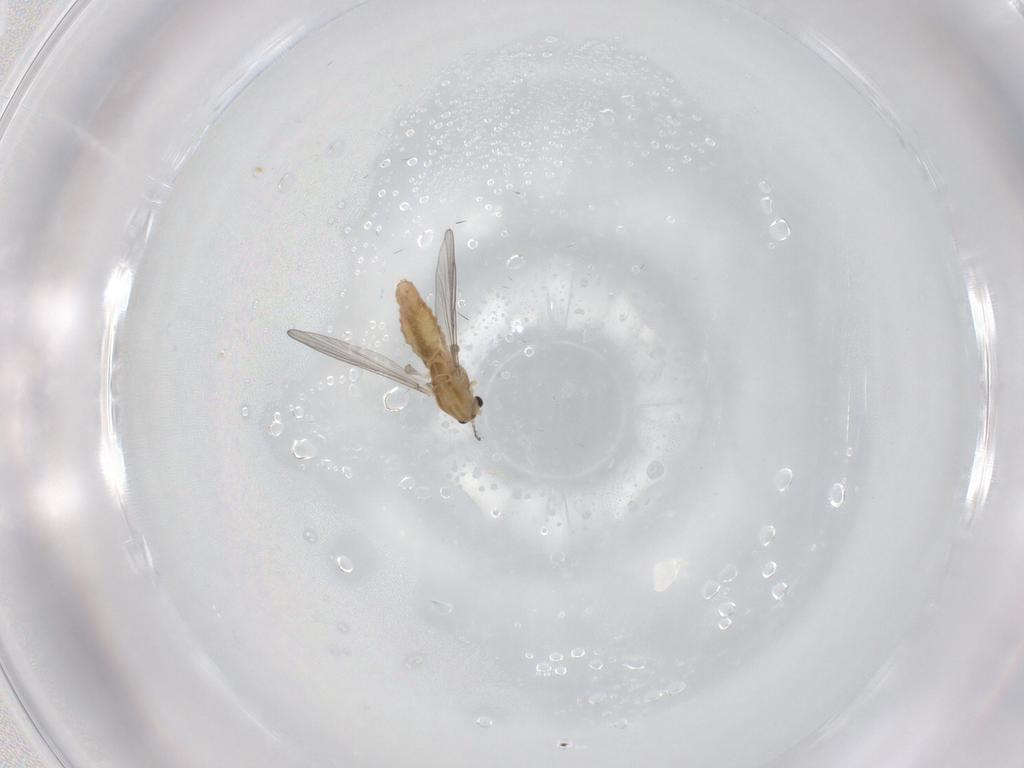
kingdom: Animalia
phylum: Arthropoda
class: Insecta
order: Diptera
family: Chironomidae
